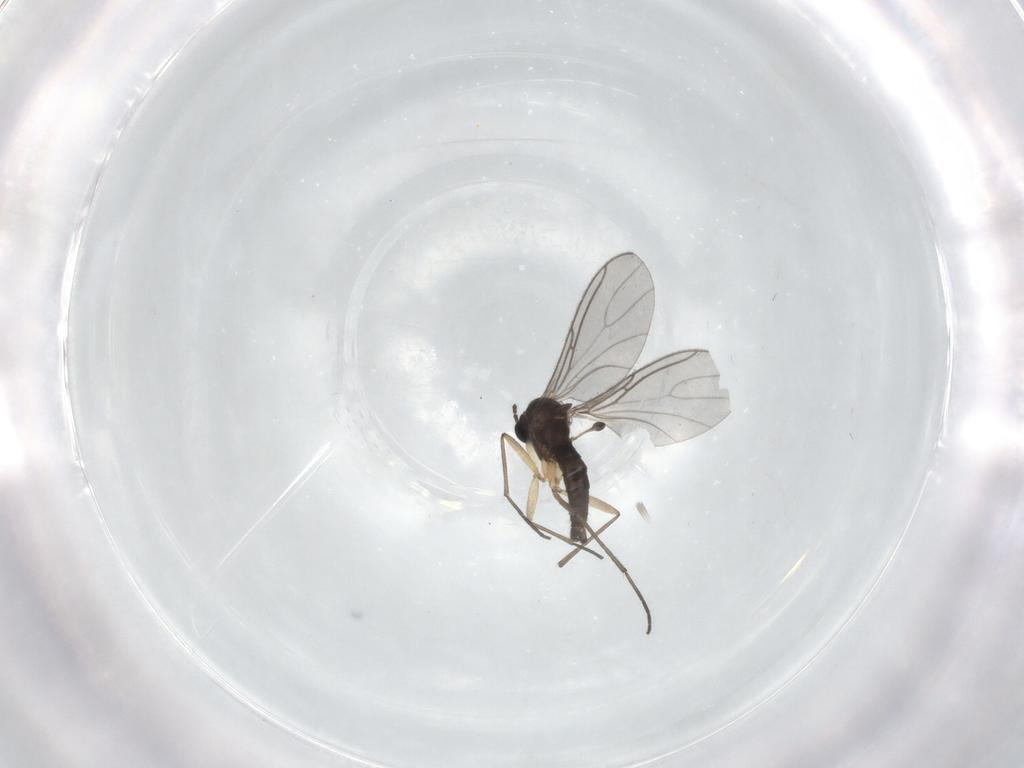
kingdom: Animalia
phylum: Arthropoda
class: Insecta
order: Diptera
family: Sciaridae
